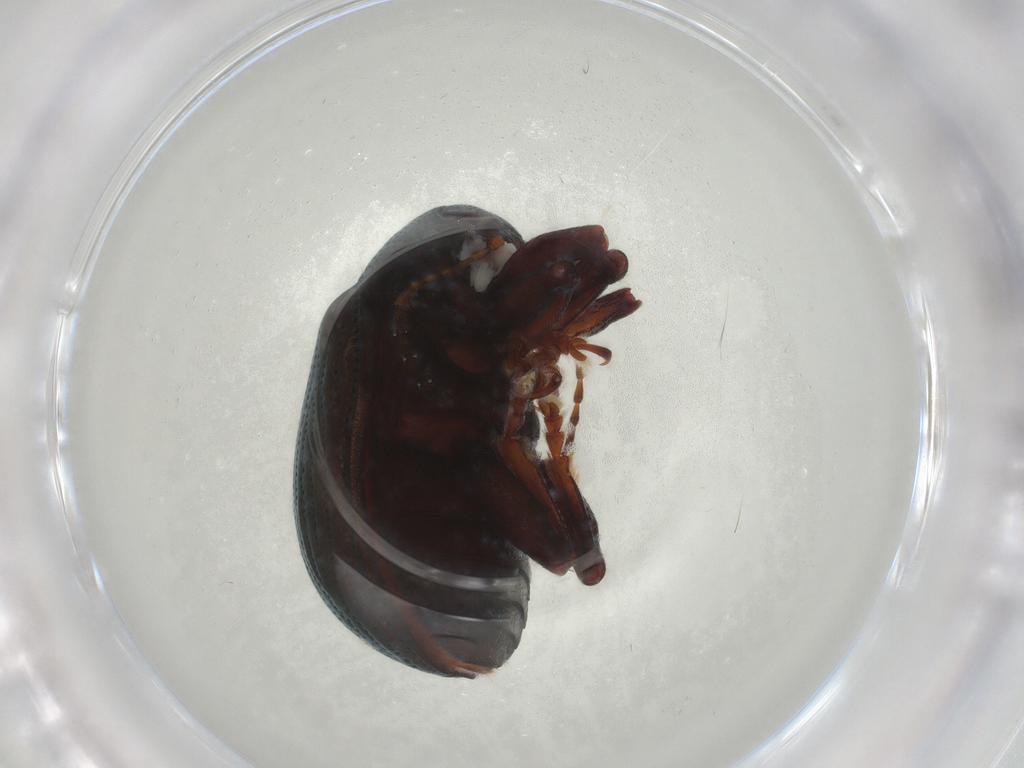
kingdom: Animalia
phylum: Arthropoda
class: Insecta
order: Coleoptera
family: Chrysomelidae
